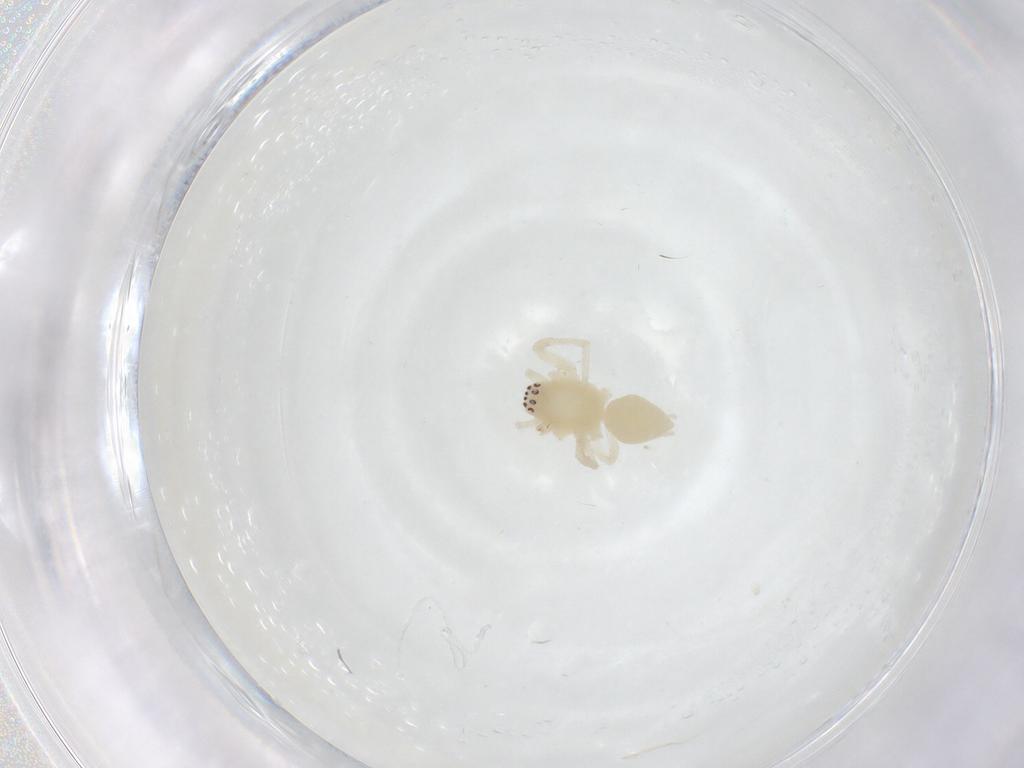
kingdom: Animalia
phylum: Arthropoda
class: Arachnida
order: Araneae
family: Anyphaenidae
